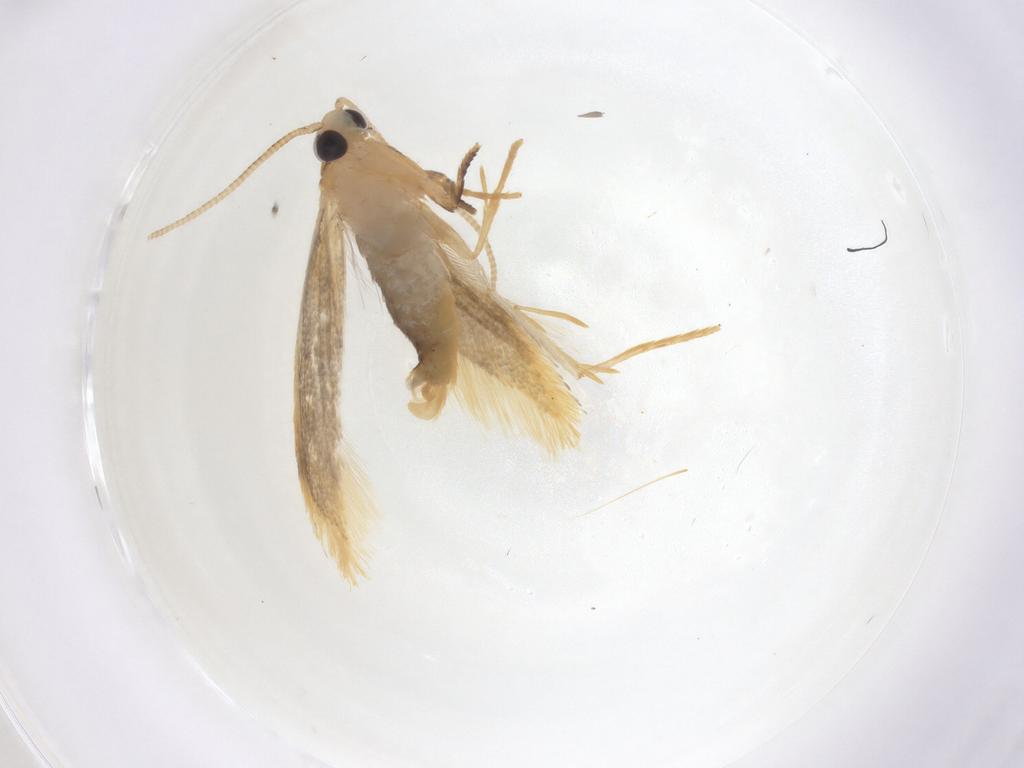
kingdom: Animalia
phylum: Arthropoda
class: Insecta
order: Lepidoptera
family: Tineidae
